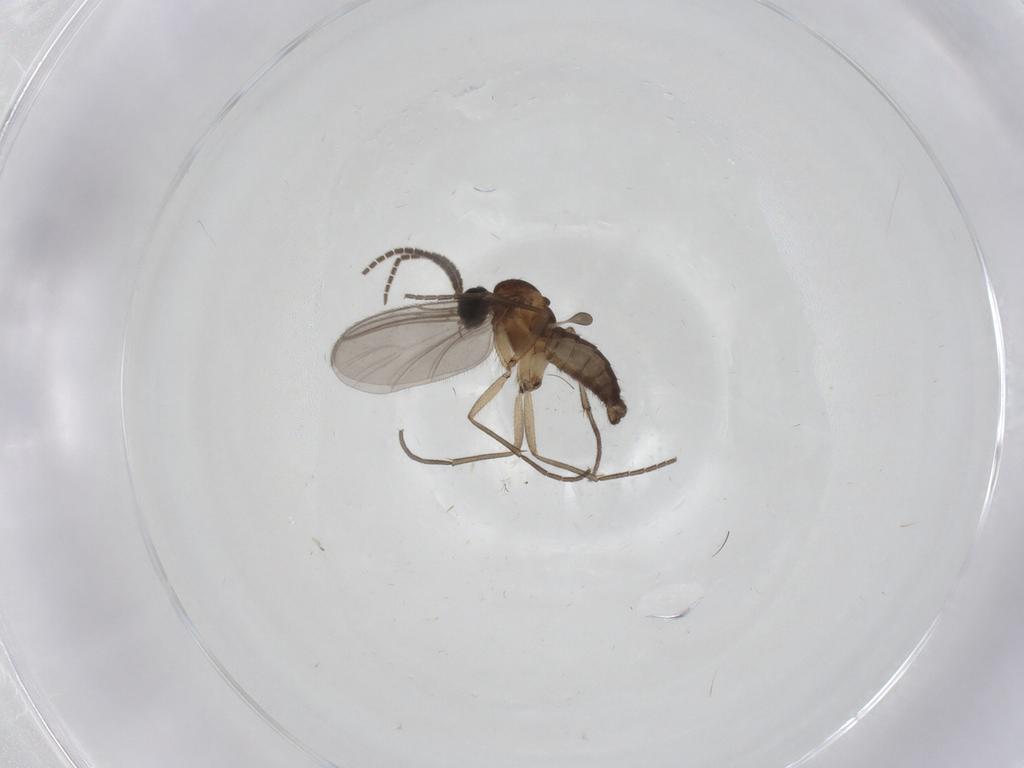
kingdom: Animalia
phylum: Arthropoda
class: Insecta
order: Diptera
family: Sciaridae
